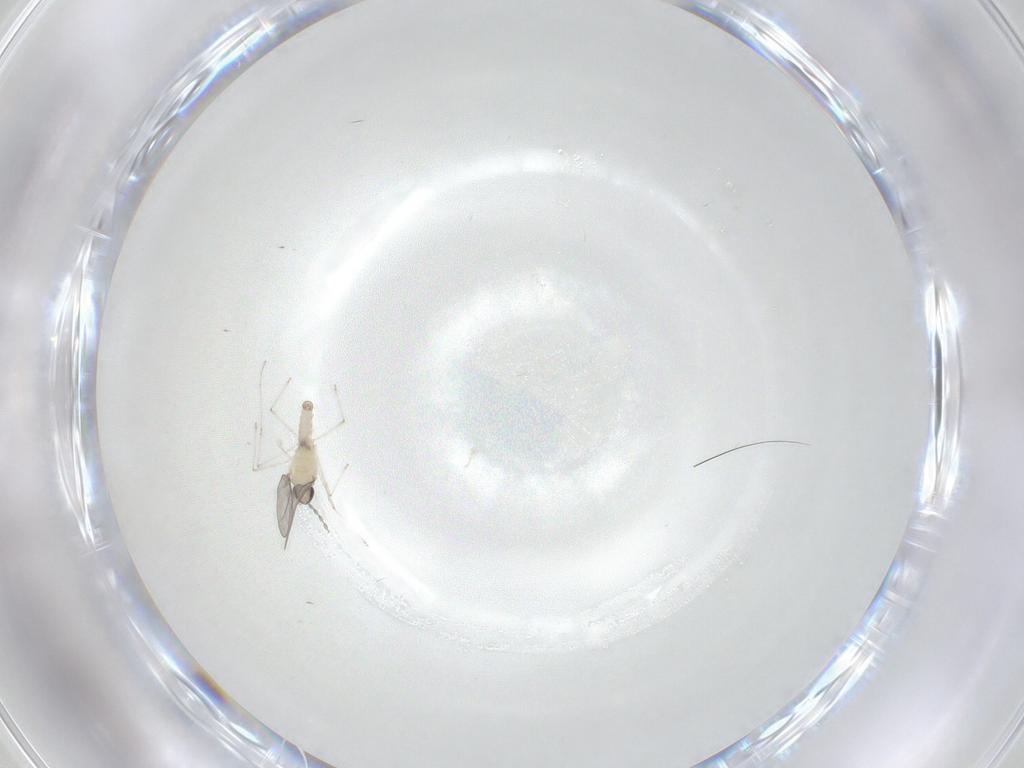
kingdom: Animalia
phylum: Arthropoda
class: Insecta
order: Diptera
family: Cecidomyiidae
